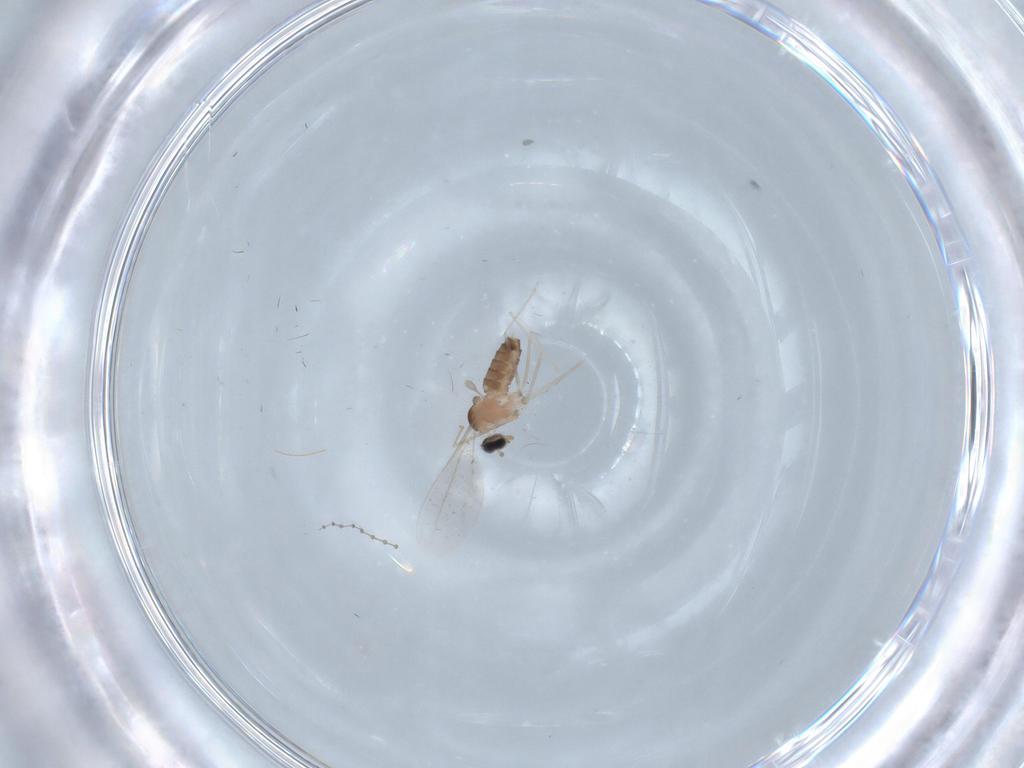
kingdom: Animalia
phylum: Arthropoda
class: Insecta
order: Diptera
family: Cecidomyiidae
